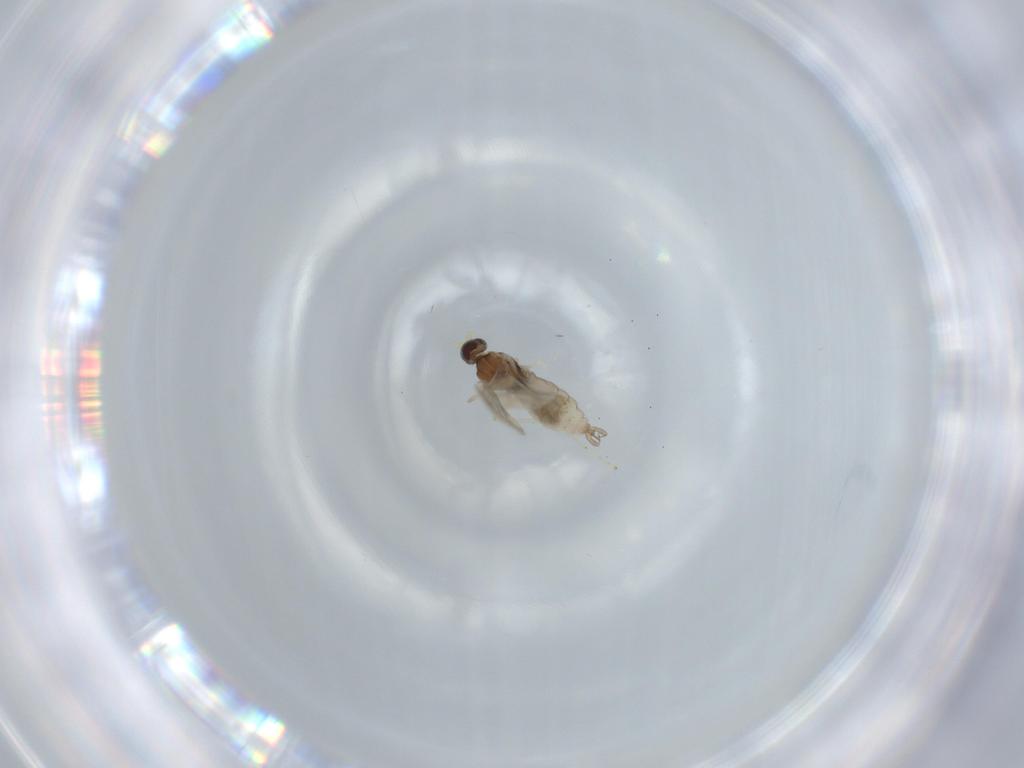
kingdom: Animalia
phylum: Arthropoda
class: Insecta
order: Diptera
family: Cecidomyiidae
